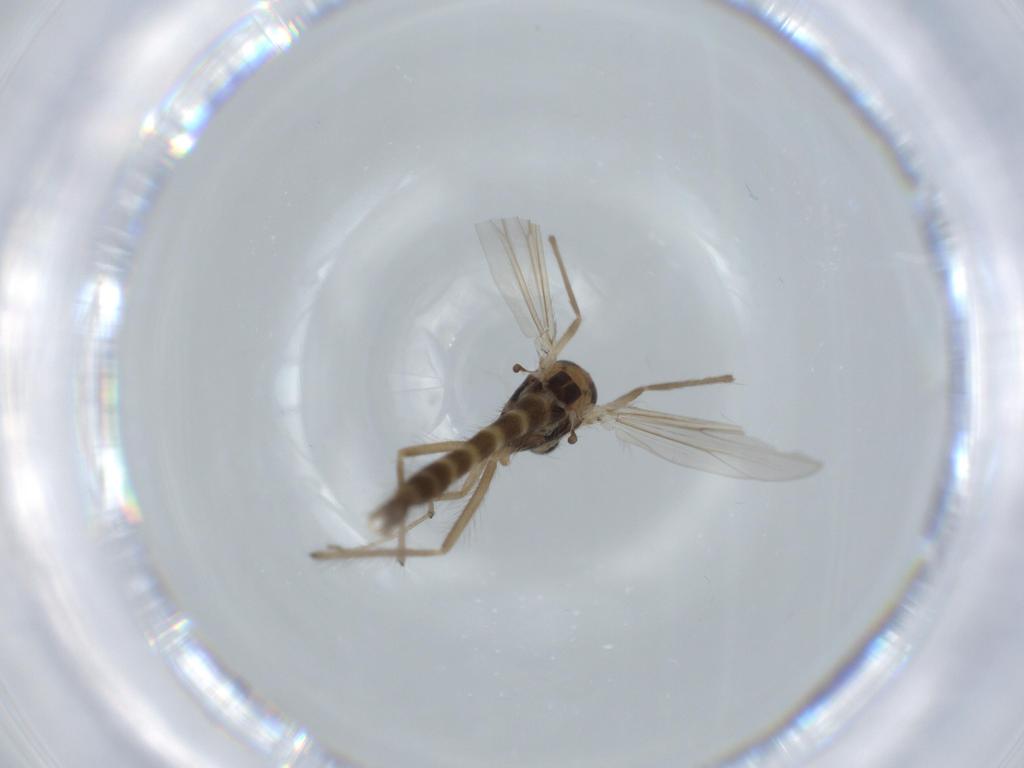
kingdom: Animalia
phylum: Arthropoda
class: Insecta
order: Diptera
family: Chironomidae
